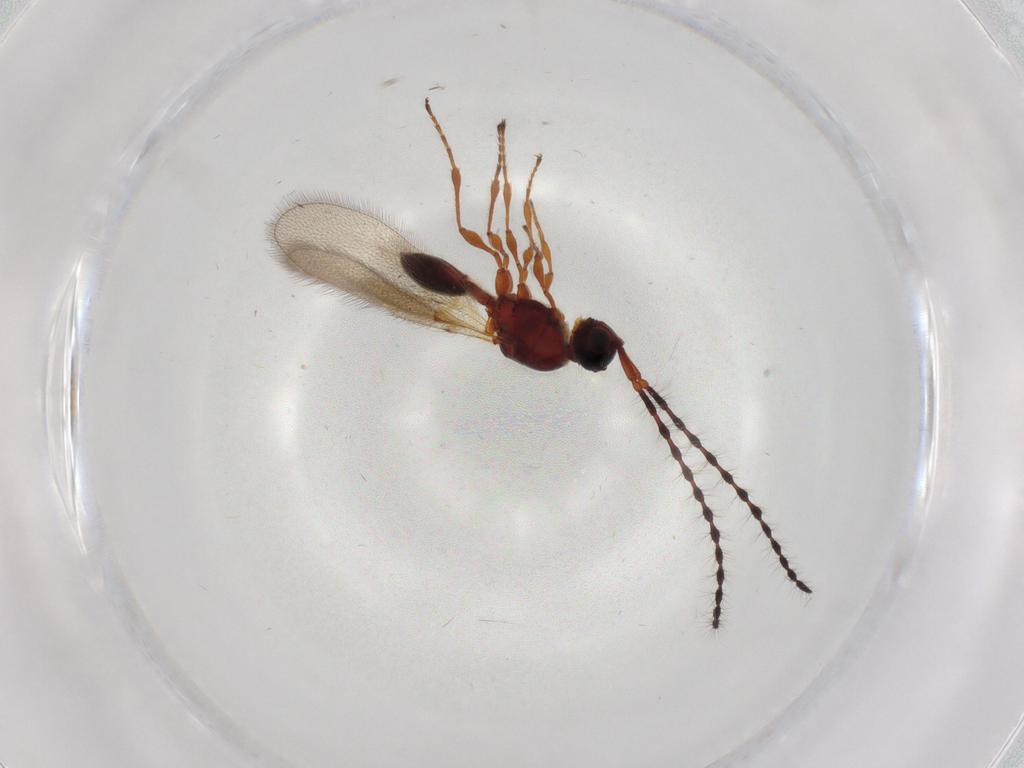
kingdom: Animalia
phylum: Arthropoda
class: Insecta
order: Hymenoptera
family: Diapriidae
